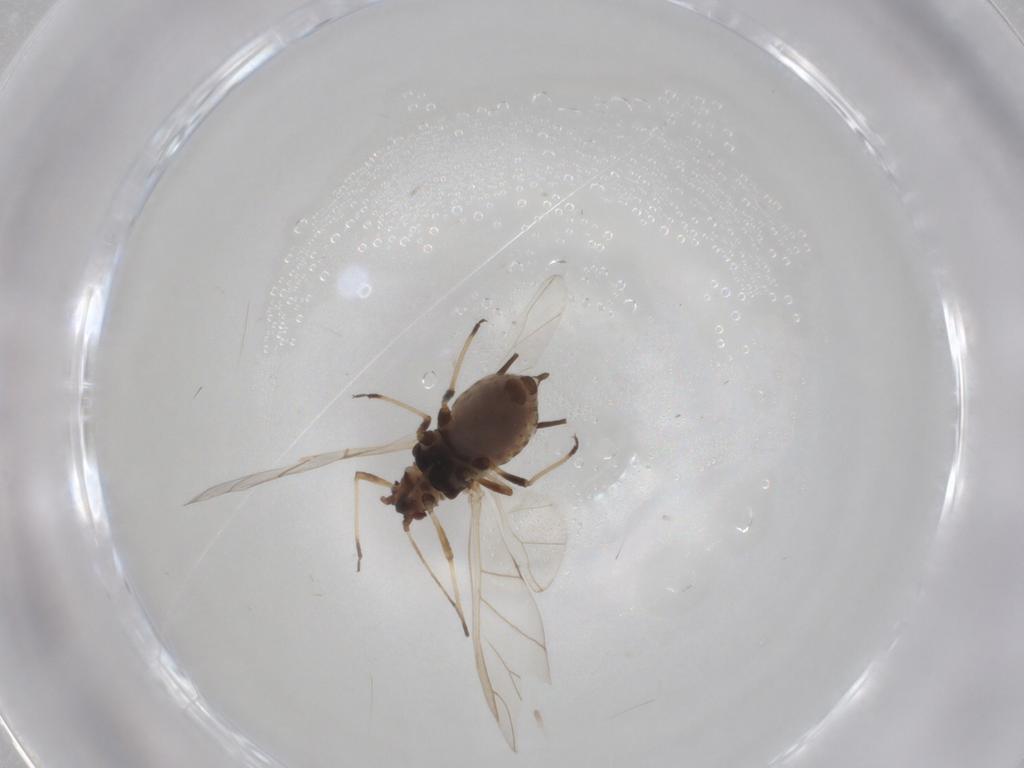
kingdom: Animalia
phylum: Arthropoda
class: Insecta
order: Hemiptera
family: Aphididae
